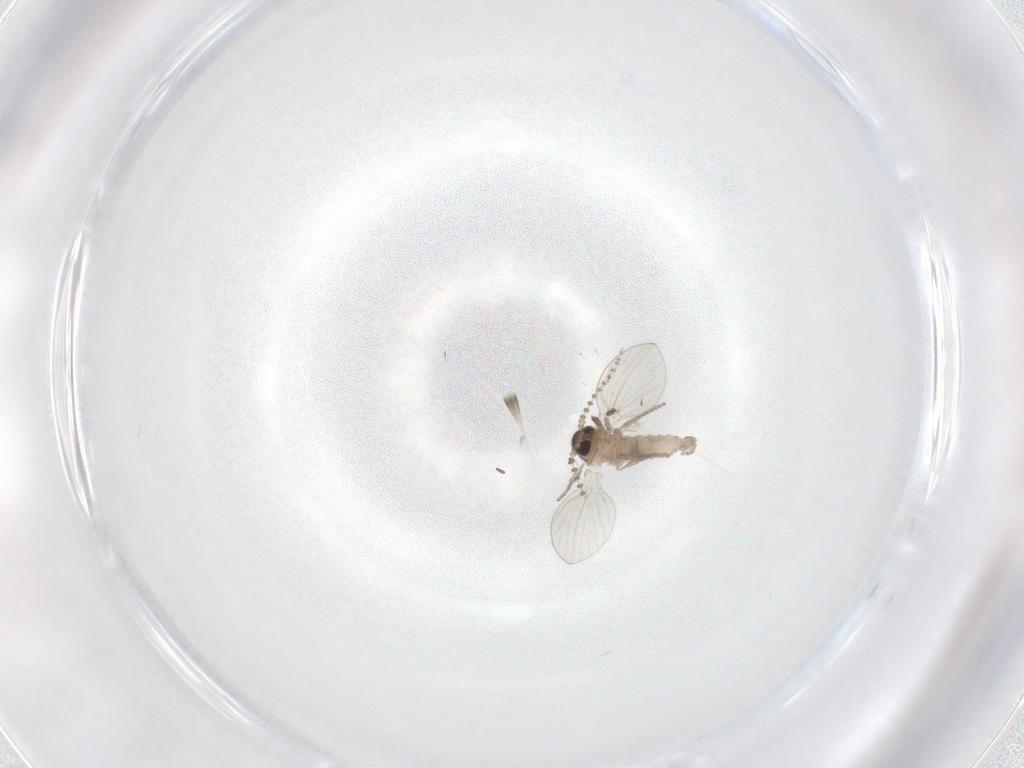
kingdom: Animalia
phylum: Arthropoda
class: Insecta
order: Diptera
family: Psychodidae
